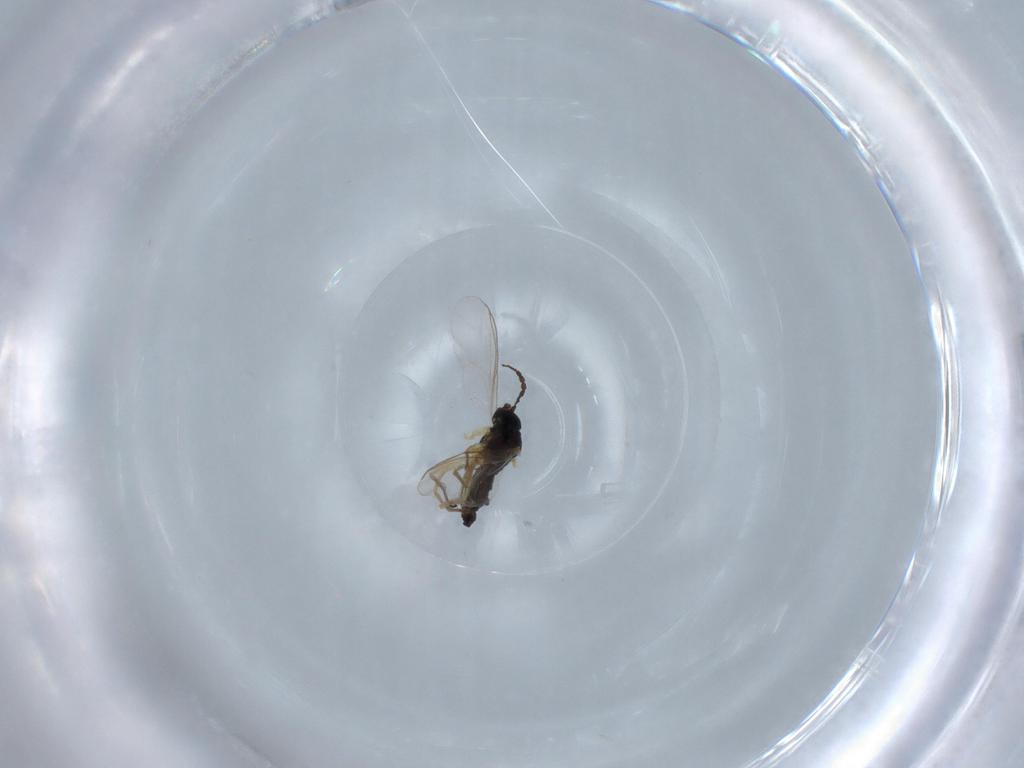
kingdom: Animalia
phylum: Arthropoda
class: Insecta
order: Diptera
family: Sciaridae
